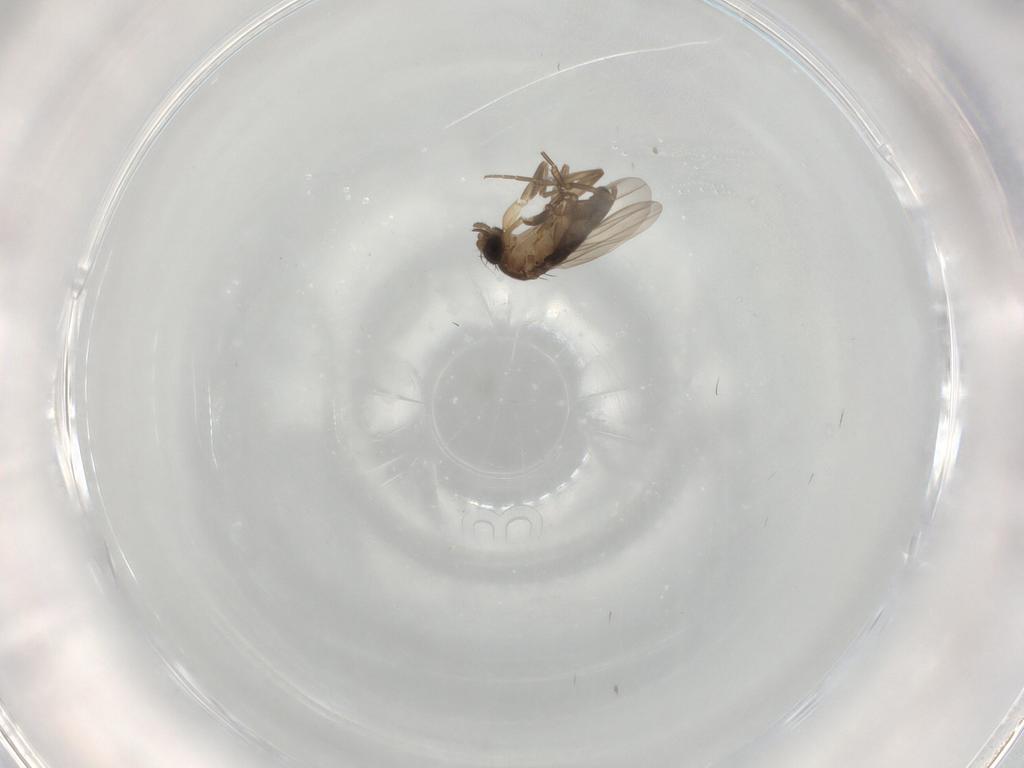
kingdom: Animalia
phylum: Arthropoda
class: Insecta
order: Diptera
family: Phoridae
